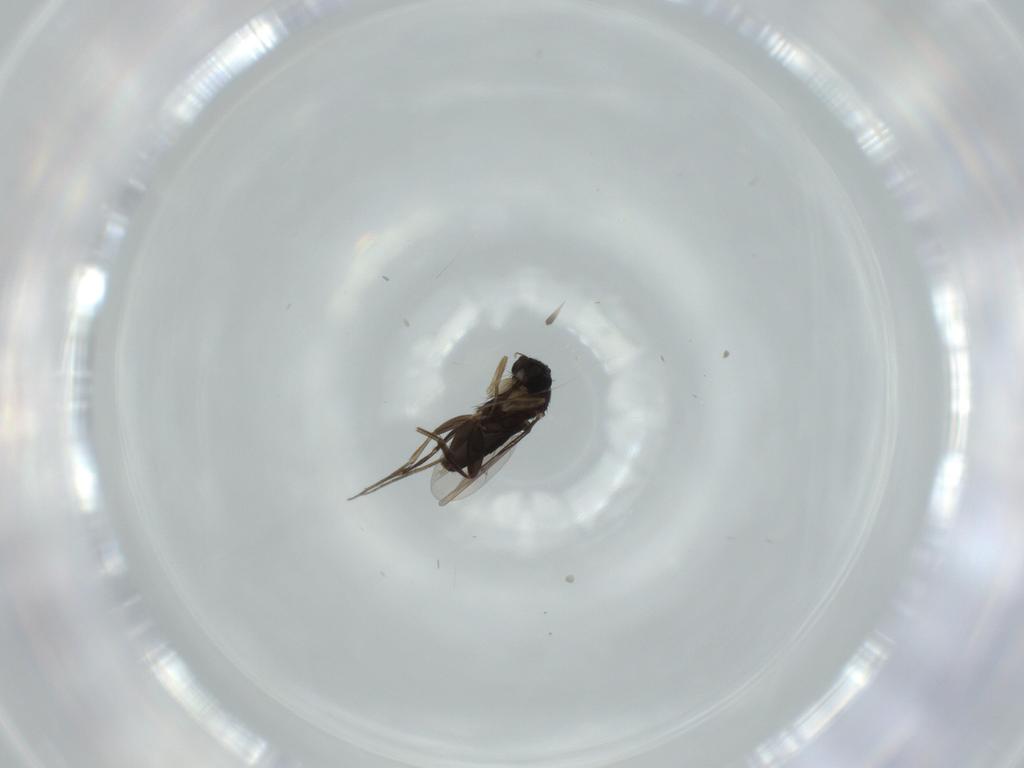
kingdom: Animalia
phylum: Arthropoda
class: Insecta
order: Diptera
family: Phoridae
